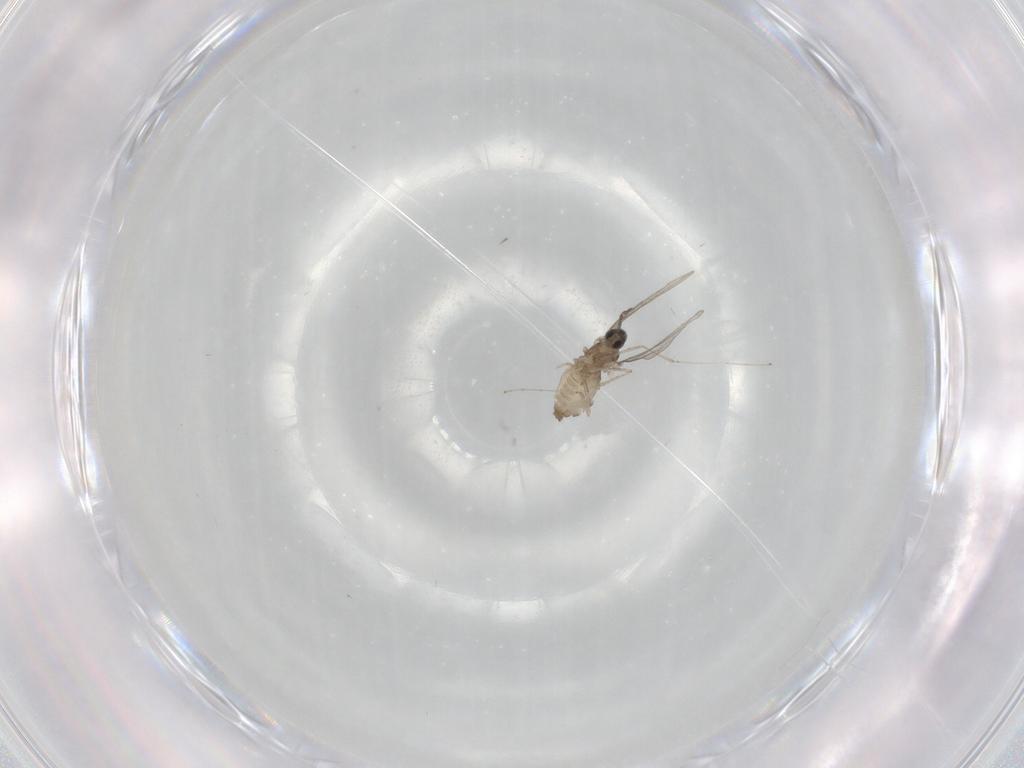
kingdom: Animalia
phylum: Arthropoda
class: Insecta
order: Diptera
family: Cecidomyiidae
